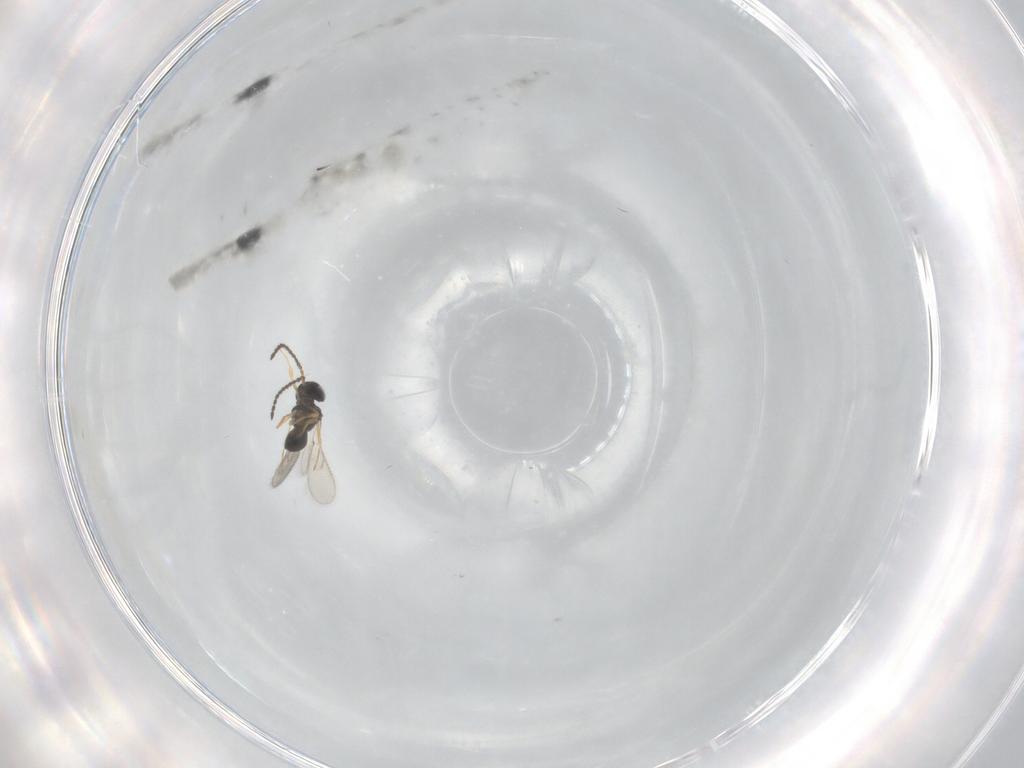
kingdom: Animalia
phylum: Arthropoda
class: Insecta
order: Hymenoptera
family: Scelionidae
